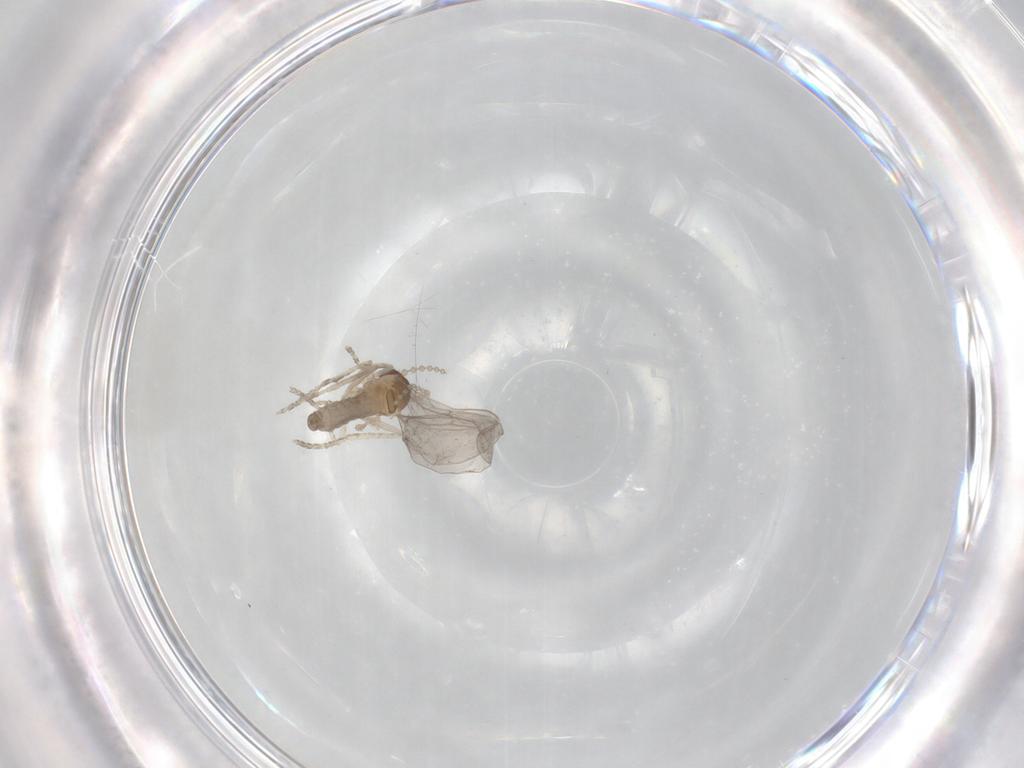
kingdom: Animalia
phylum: Arthropoda
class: Insecta
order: Diptera
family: Cecidomyiidae
